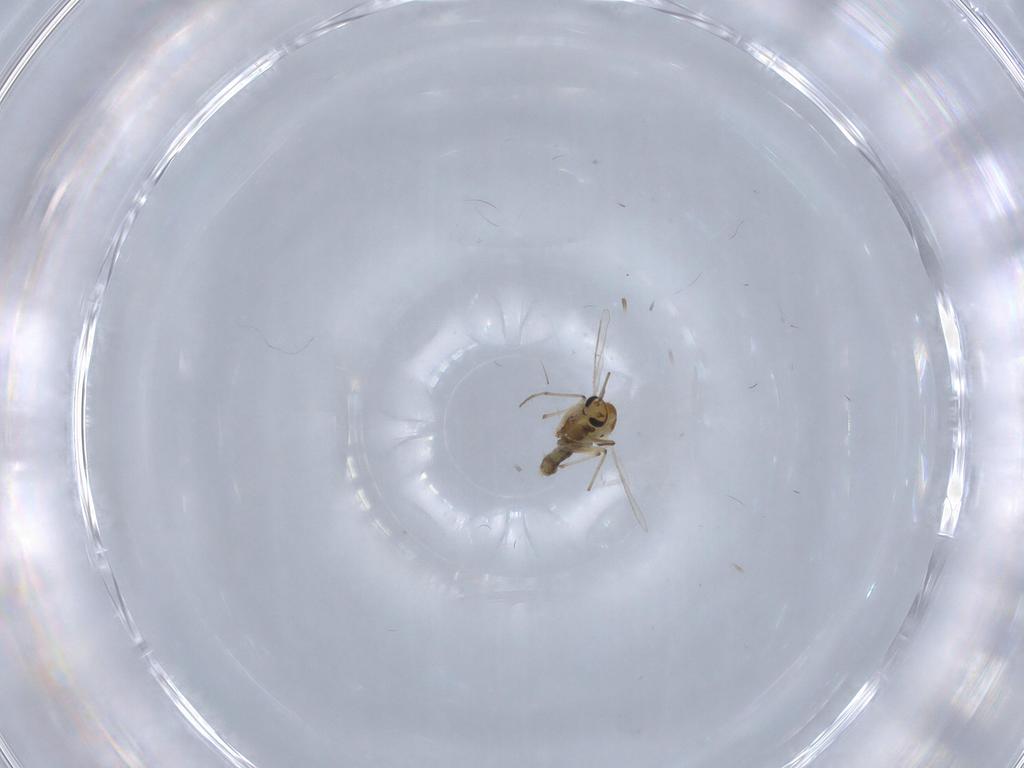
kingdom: Animalia
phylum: Arthropoda
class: Insecta
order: Diptera
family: Chironomidae
